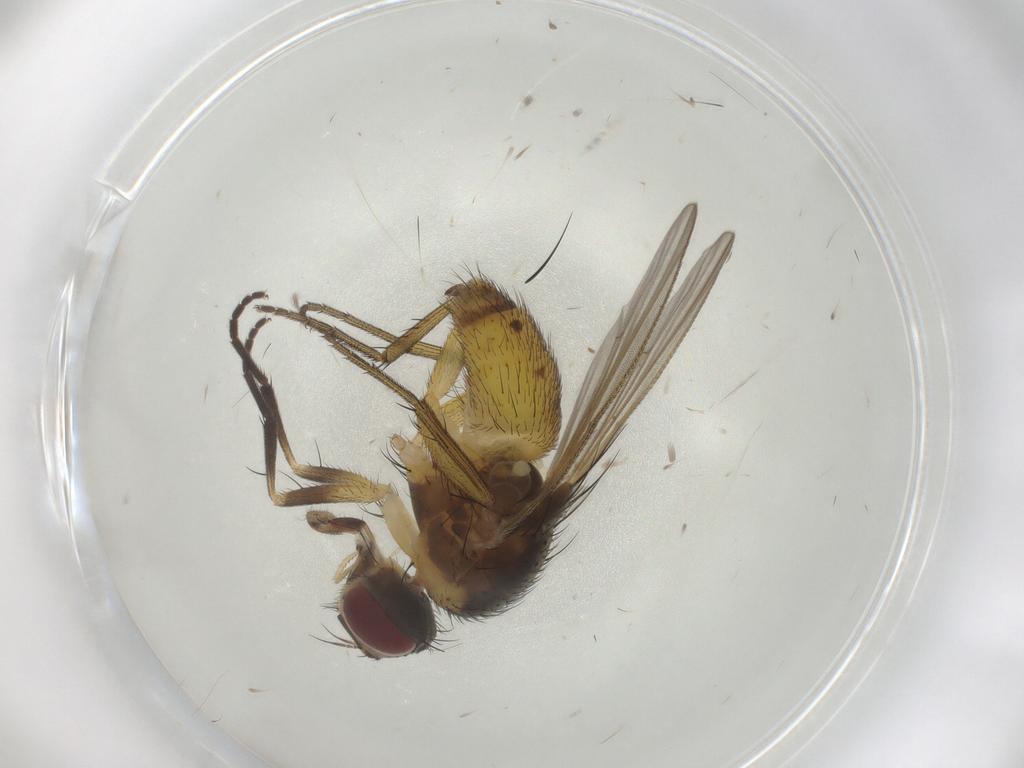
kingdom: Animalia
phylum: Arthropoda
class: Insecta
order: Diptera
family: Muscidae
